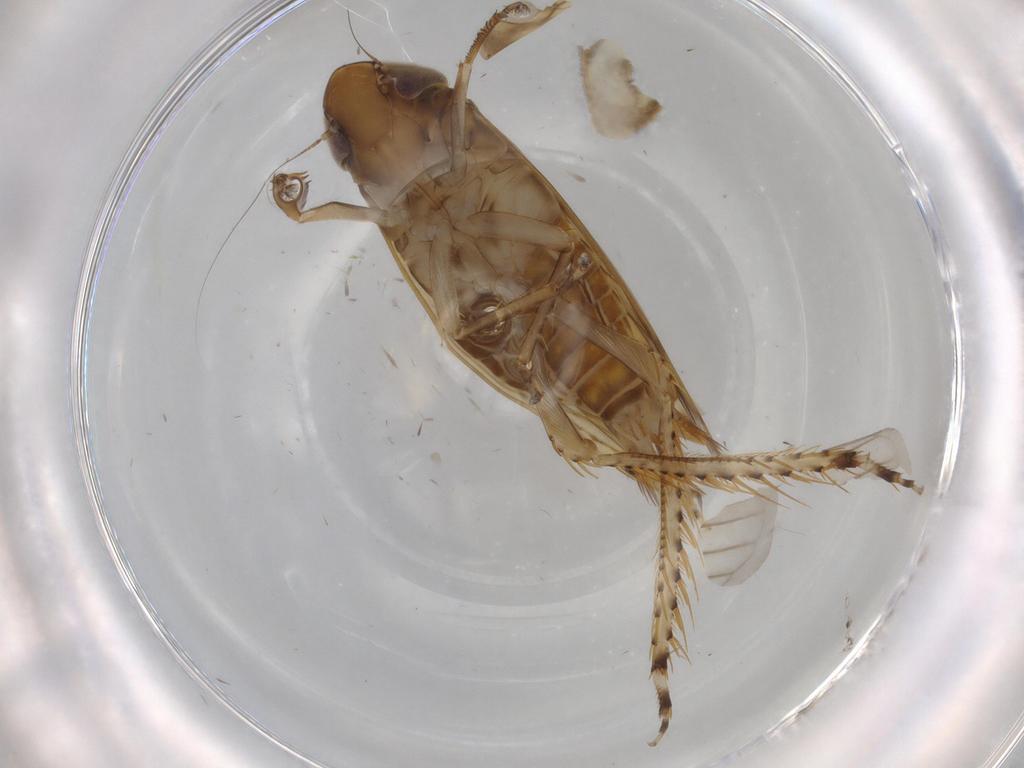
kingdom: Animalia
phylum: Arthropoda
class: Insecta
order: Hemiptera
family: Cicadellidae
